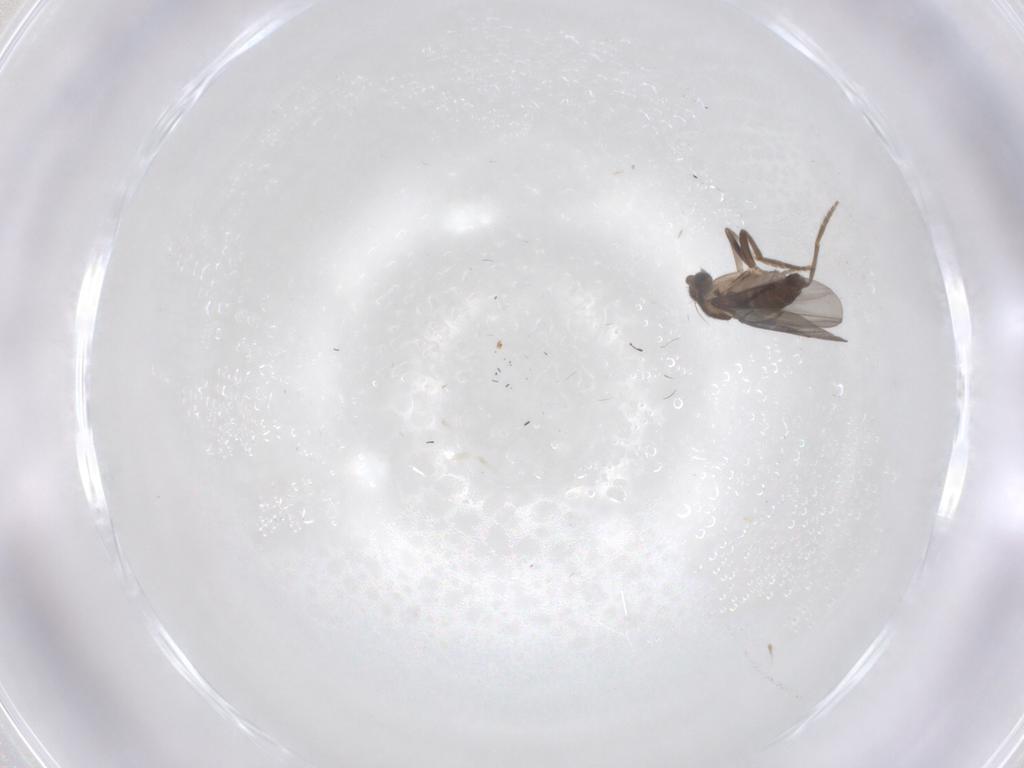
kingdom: Animalia
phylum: Arthropoda
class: Insecta
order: Diptera
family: Phoridae
